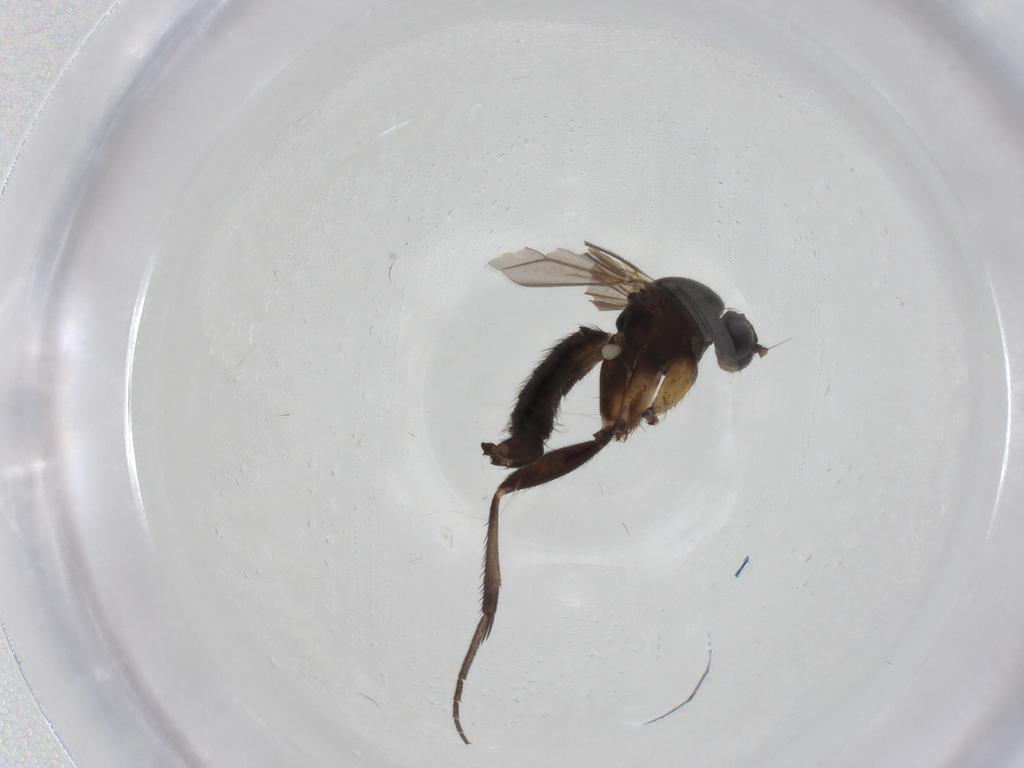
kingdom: Animalia
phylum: Arthropoda
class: Insecta
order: Diptera
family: Mycetophilidae
